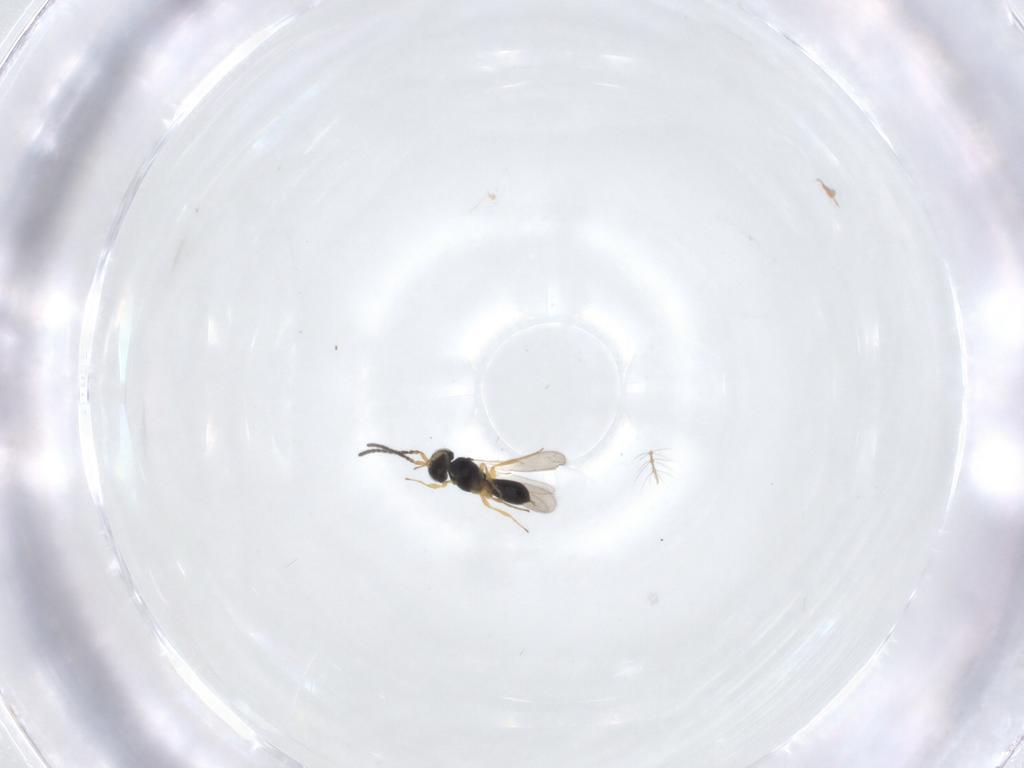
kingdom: Animalia
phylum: Arthropoda
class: Insecta
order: Hymenoptera
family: Scelionidae
